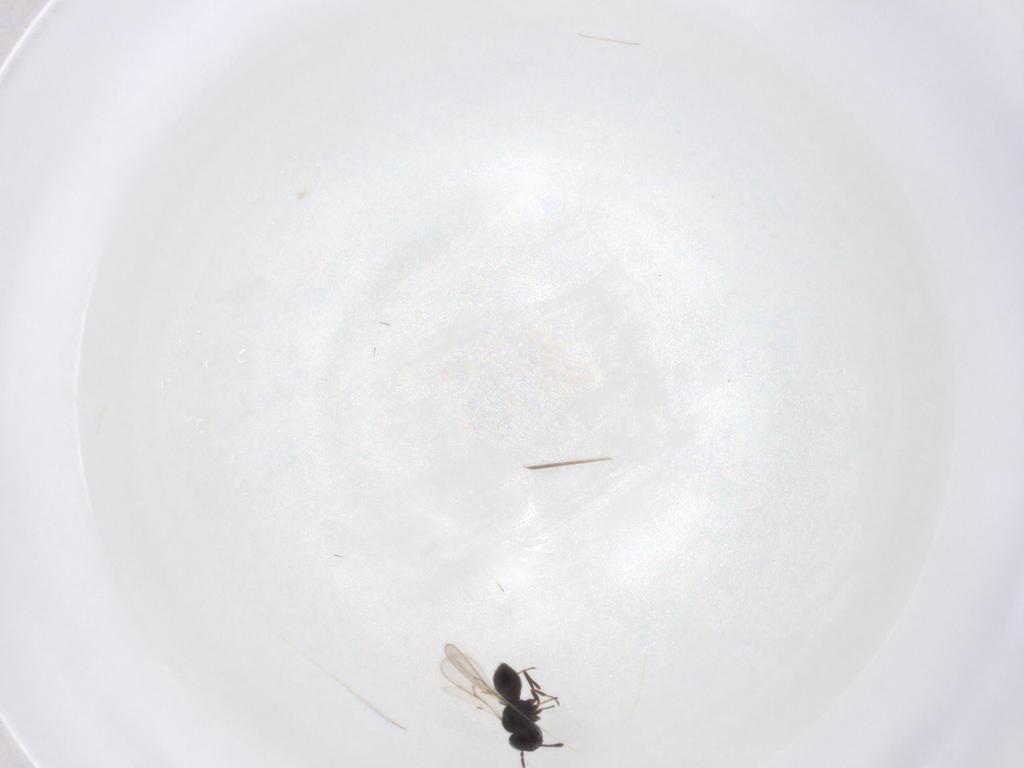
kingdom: Animalia
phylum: Arthropoda
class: Insecta
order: Hymenoptera
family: Scelionidae
